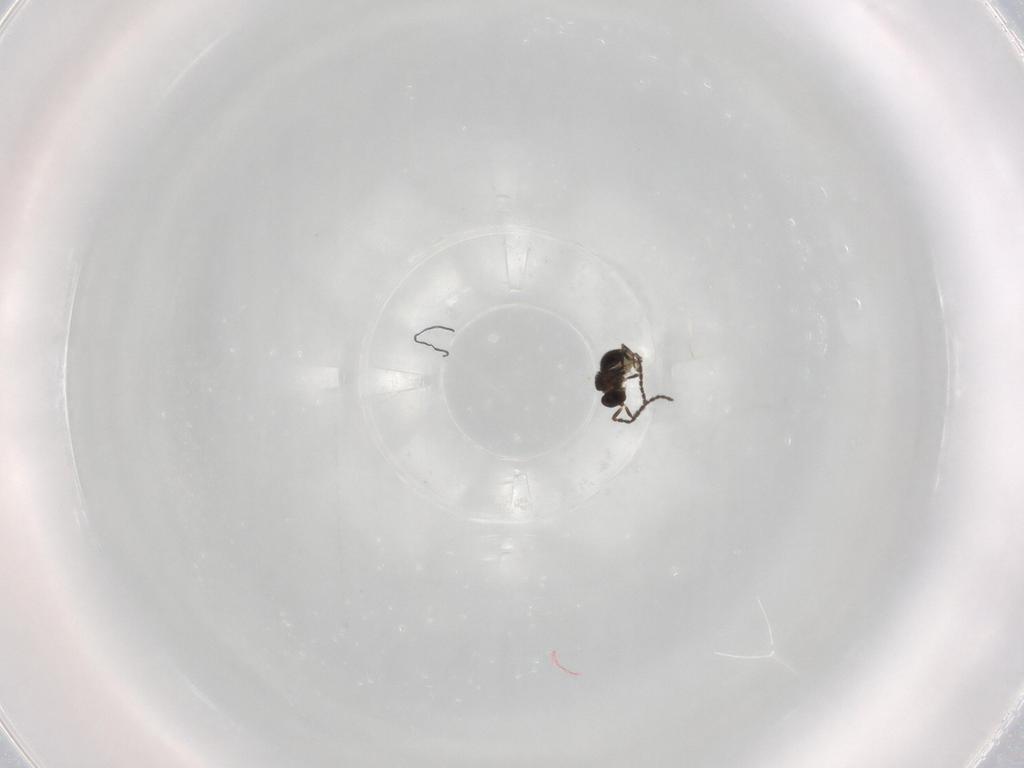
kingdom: Animalia
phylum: Arthropoda
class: Insecta
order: Hymenoptera
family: Scelionidae
